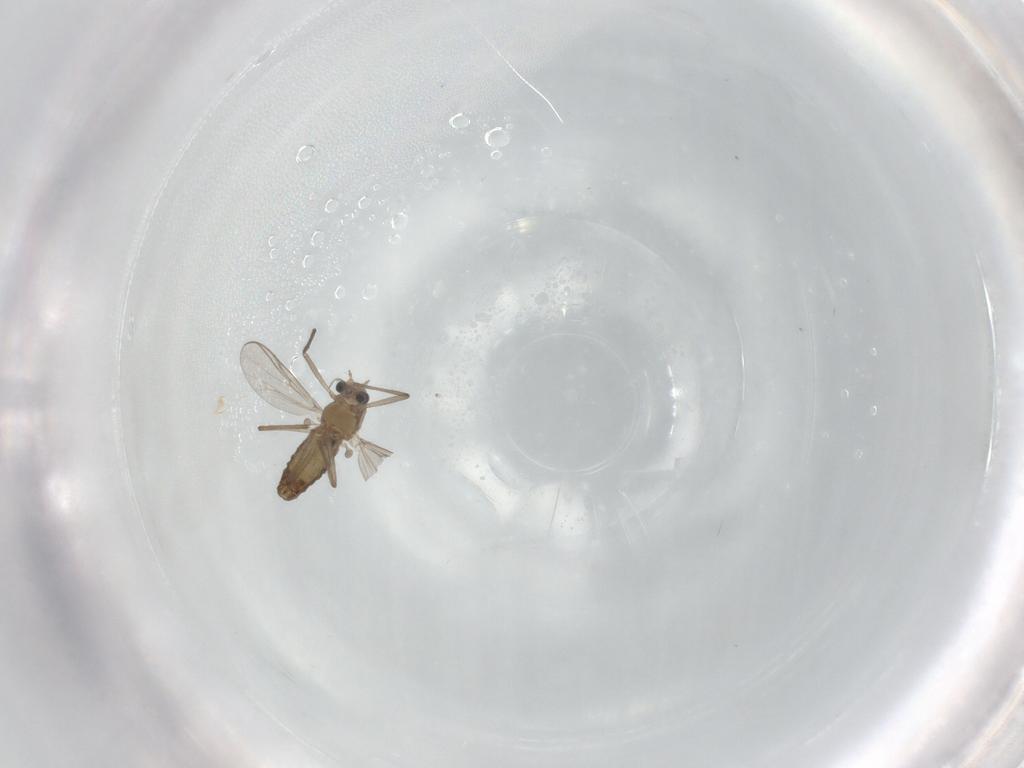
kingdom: Animalia
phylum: Arthropoda
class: Insecta
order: Diptera
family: Chironomidae
